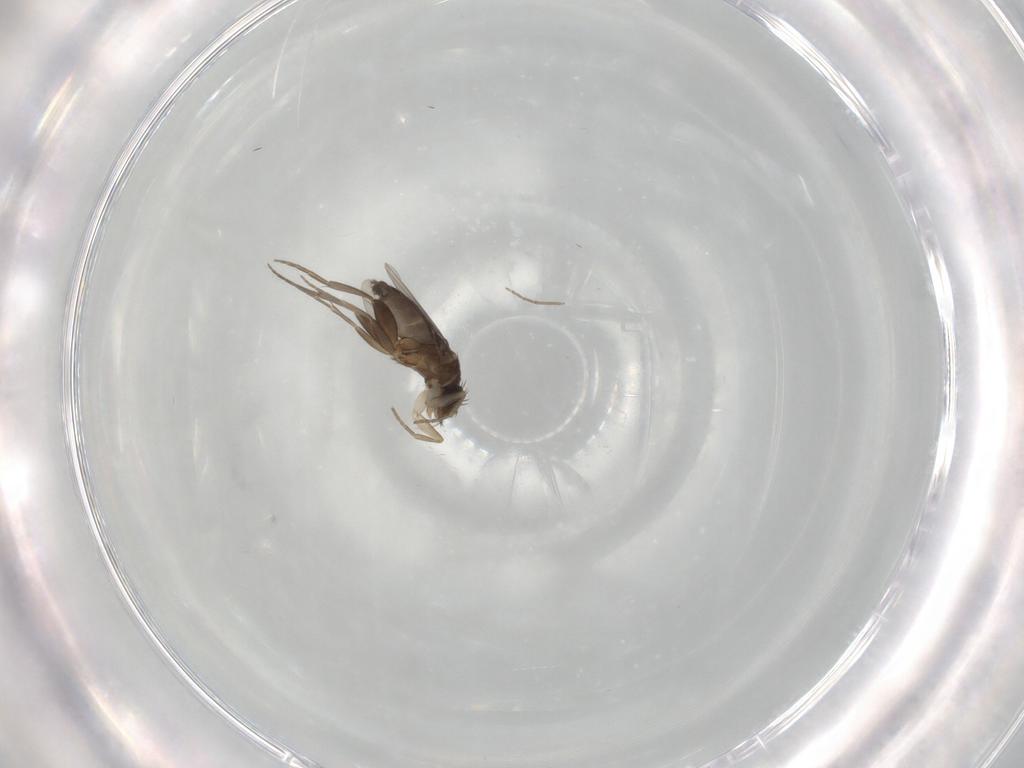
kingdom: Animalia
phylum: Arthropoda
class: Insecta
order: Diptera
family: Phoridae
